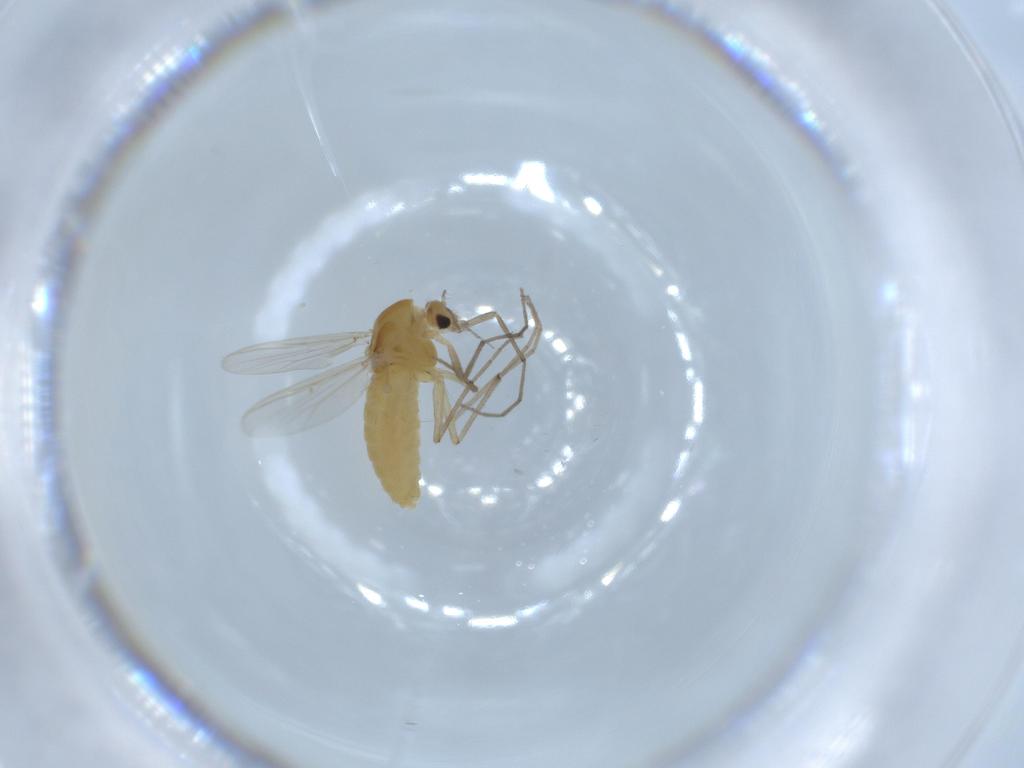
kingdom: Animalia
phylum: Arthropoda
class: Insecta
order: Diptera
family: Chironomidae
